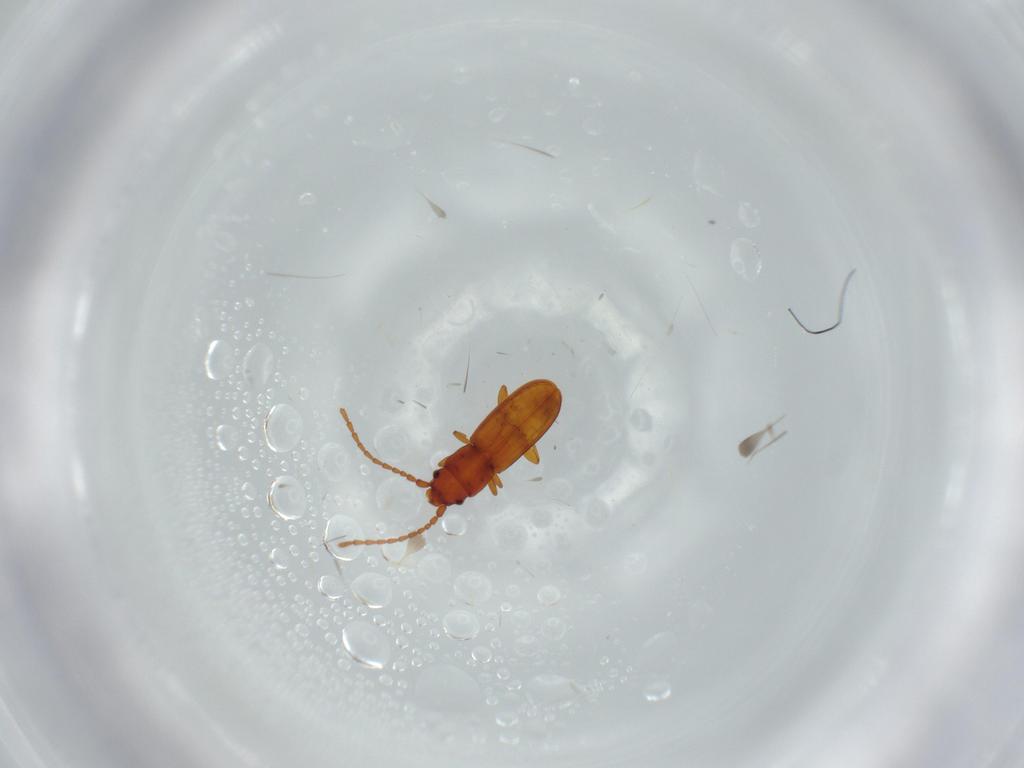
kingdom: Animalia
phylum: Arthropoda
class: Insecta
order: Coleoptera
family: Laemophloeidae
